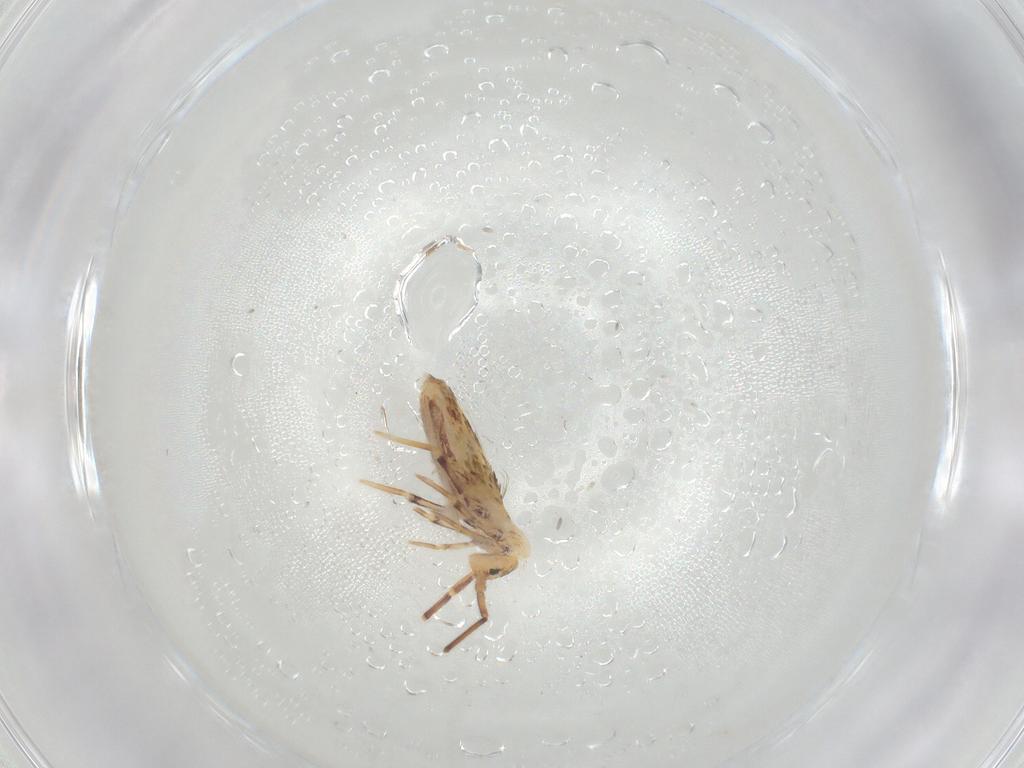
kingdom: Animalia
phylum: Arthropoda
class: Collembola
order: Poduromorpha
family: Hypogastruridae
